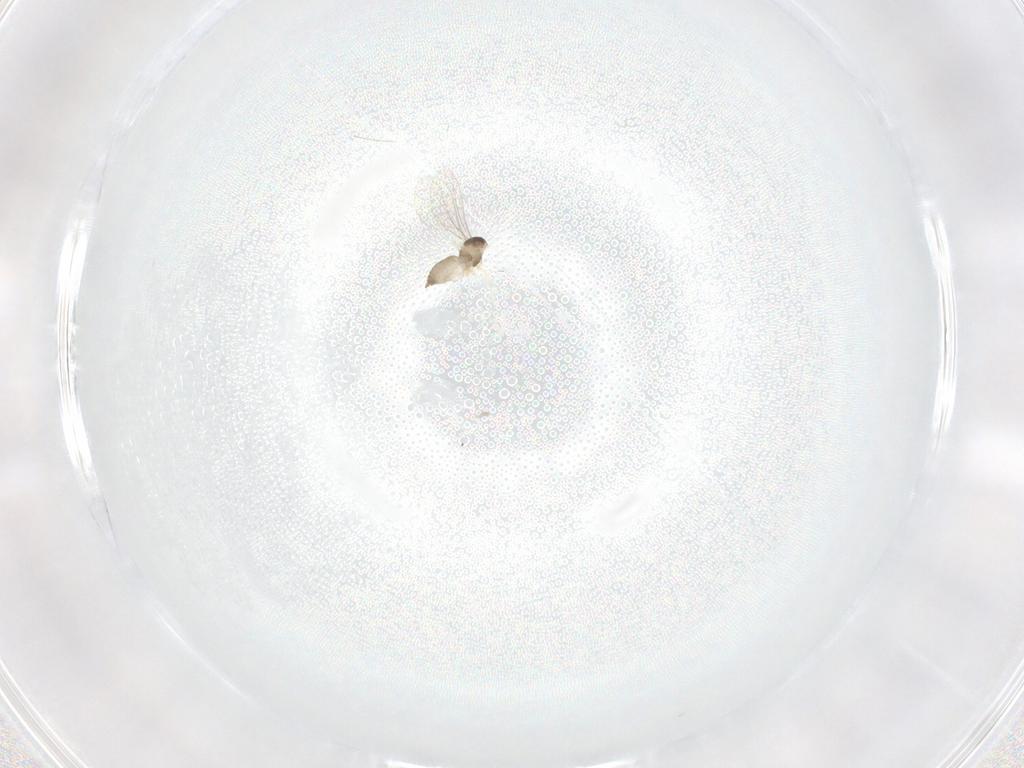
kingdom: Animalia
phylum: Arthropoda
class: Insecta
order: Diptera
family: Cecidomyiidae
